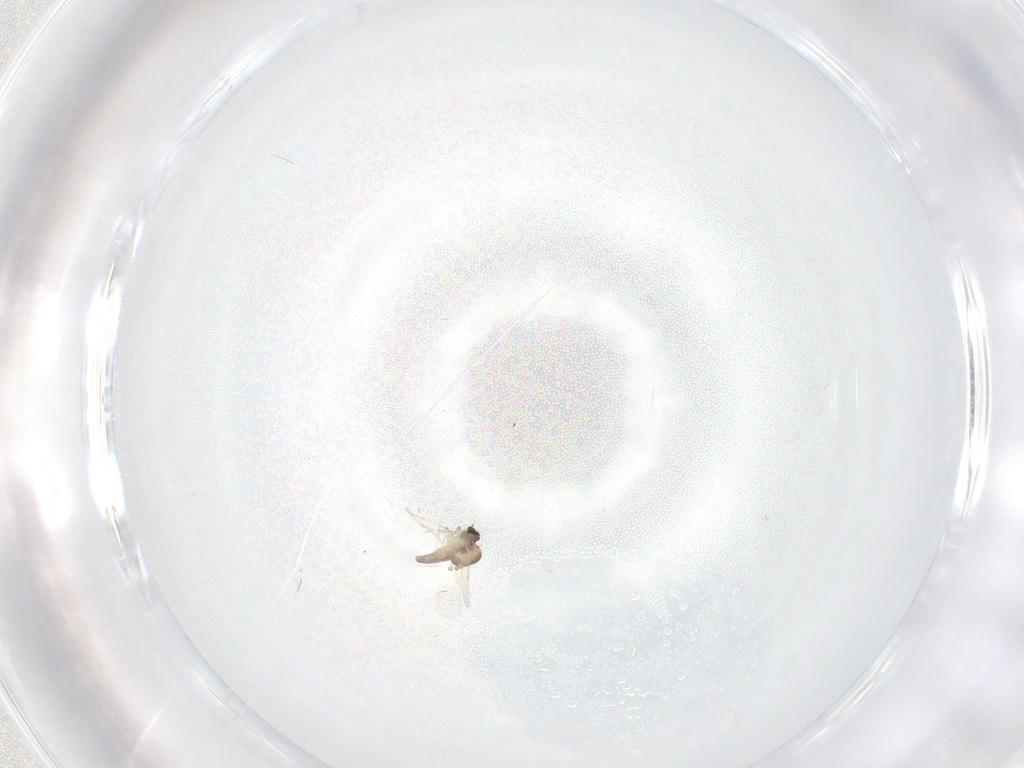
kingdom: Animalia
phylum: Arthropoda
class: Insecta
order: Diptera
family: Ceratopogonidae
